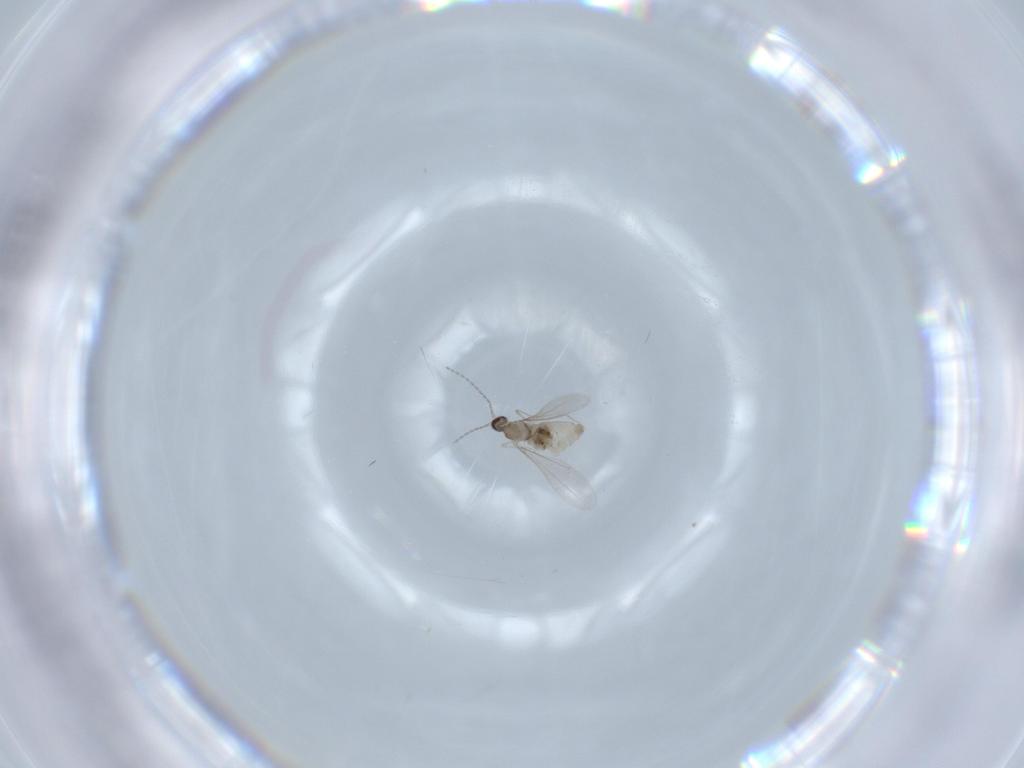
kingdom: Animalia
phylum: Arthropoda
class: Insecta
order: Diptera
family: Cecidomyiidae
